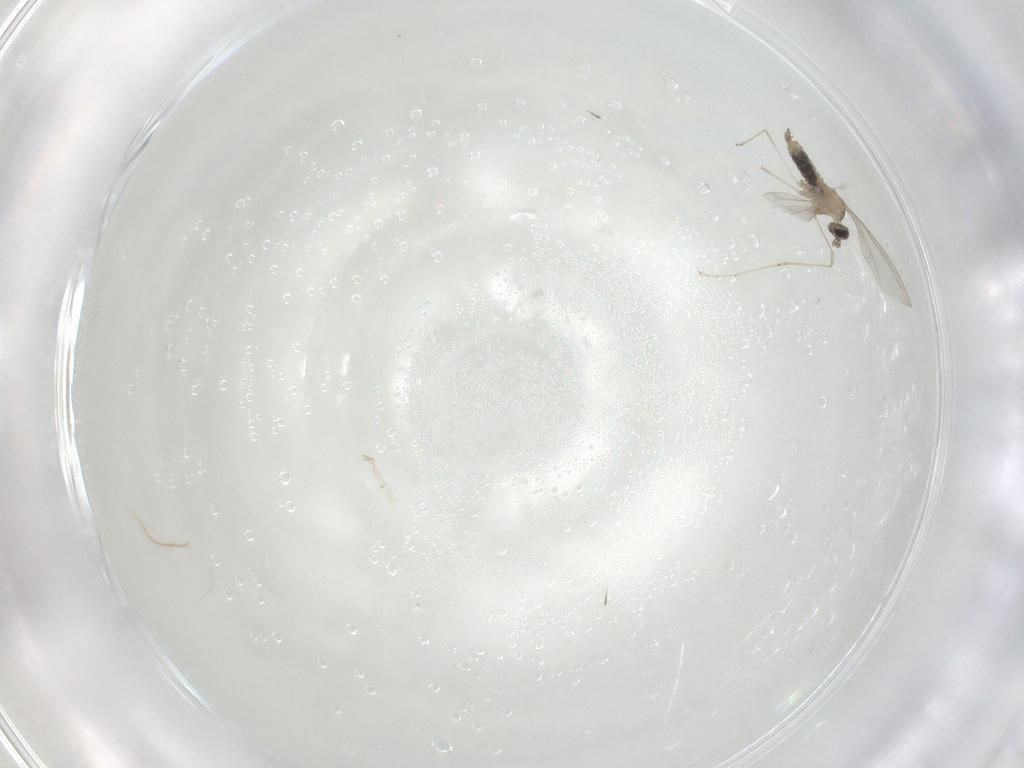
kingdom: Animalia
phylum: Arthropoda
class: Insecta
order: Diptera
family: Cecidomyiidae
